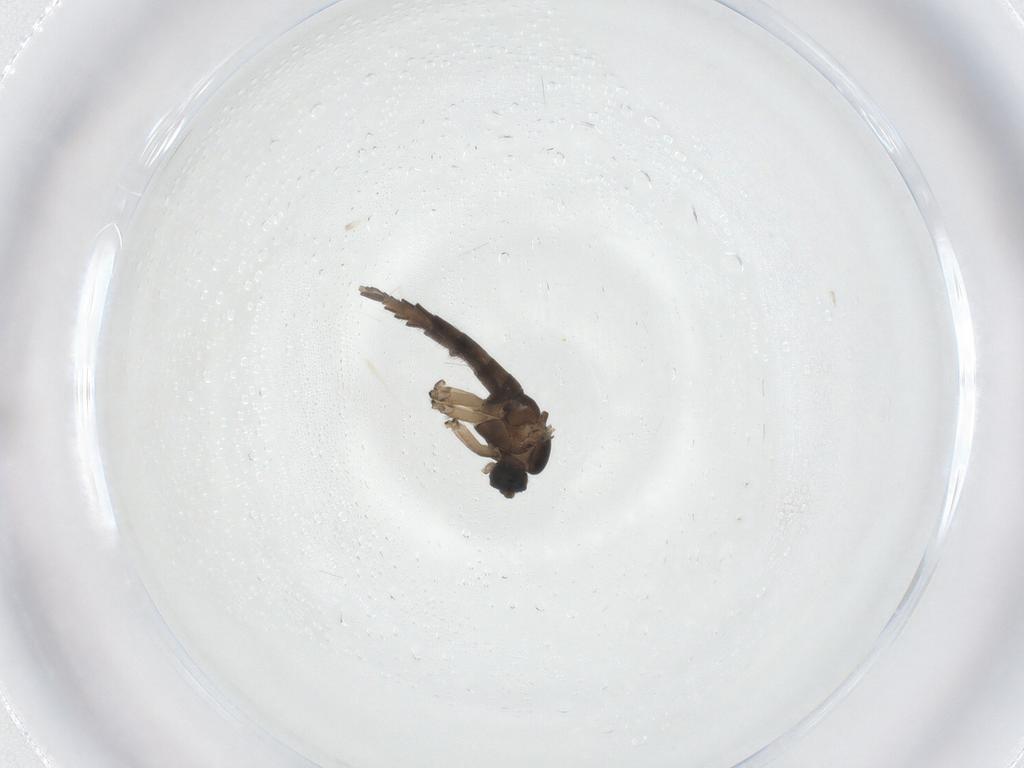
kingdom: Animalia
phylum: Arthropoda
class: Insecta
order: Diptera
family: Sciaridae
